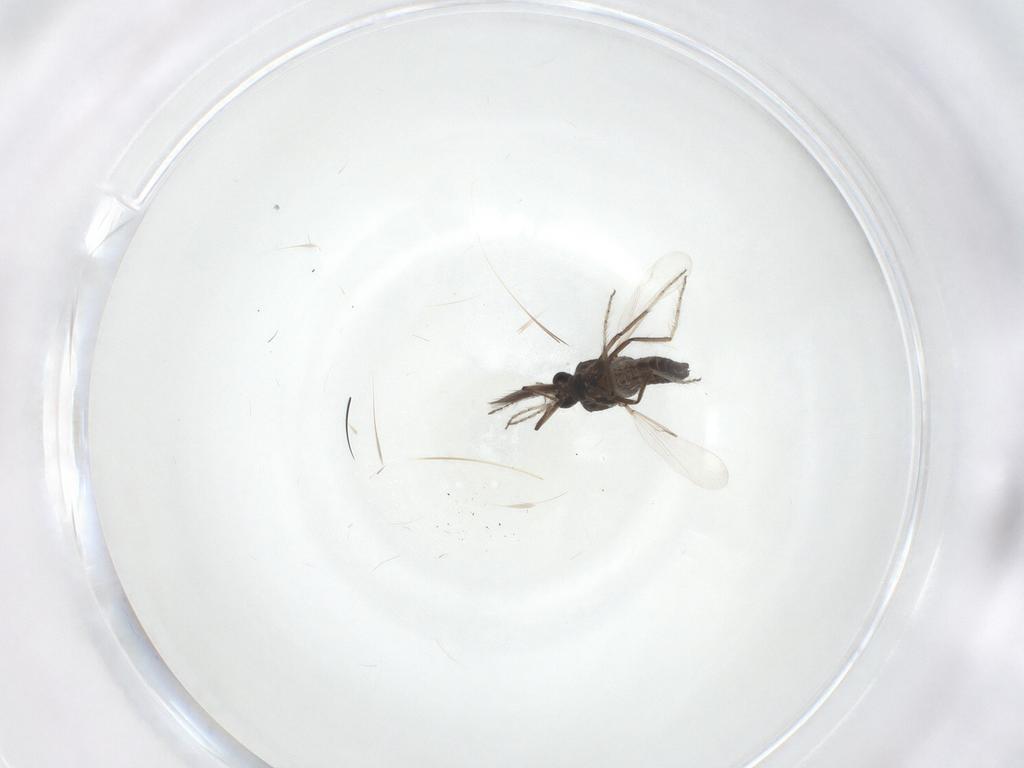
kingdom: Animalia
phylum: Arthropoda
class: Insecta
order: Diptera
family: Ceratopogonidae
